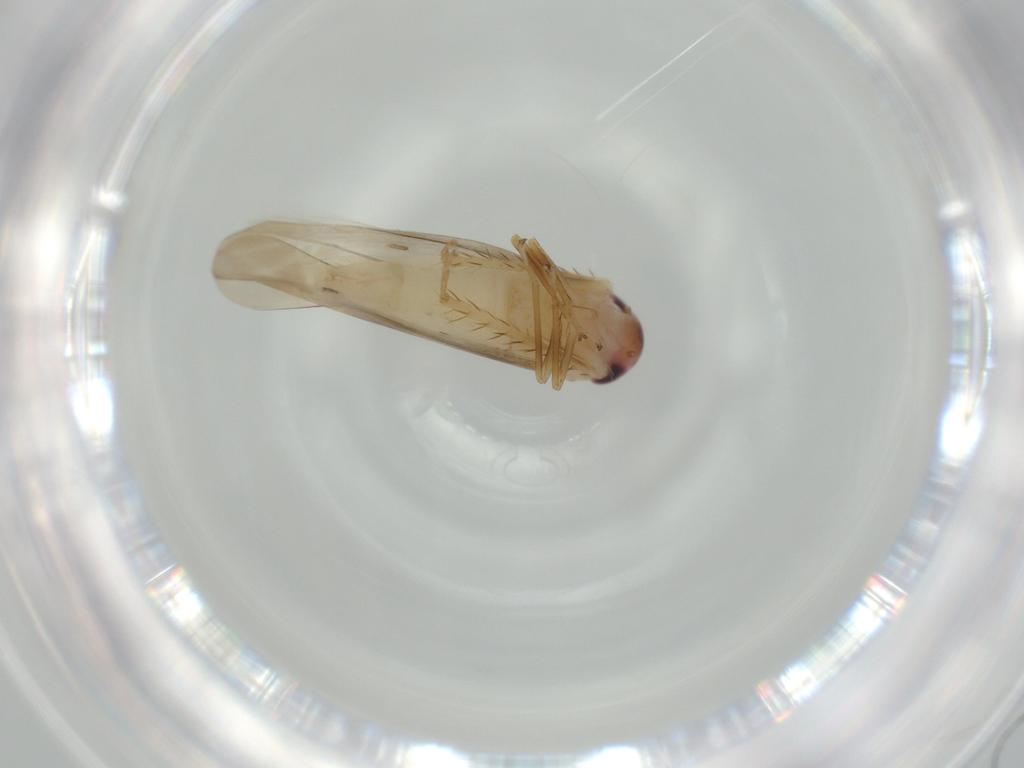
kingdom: Animalia
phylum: Arthropoda
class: Insecta
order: Hemiptera
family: Cicadellidae
